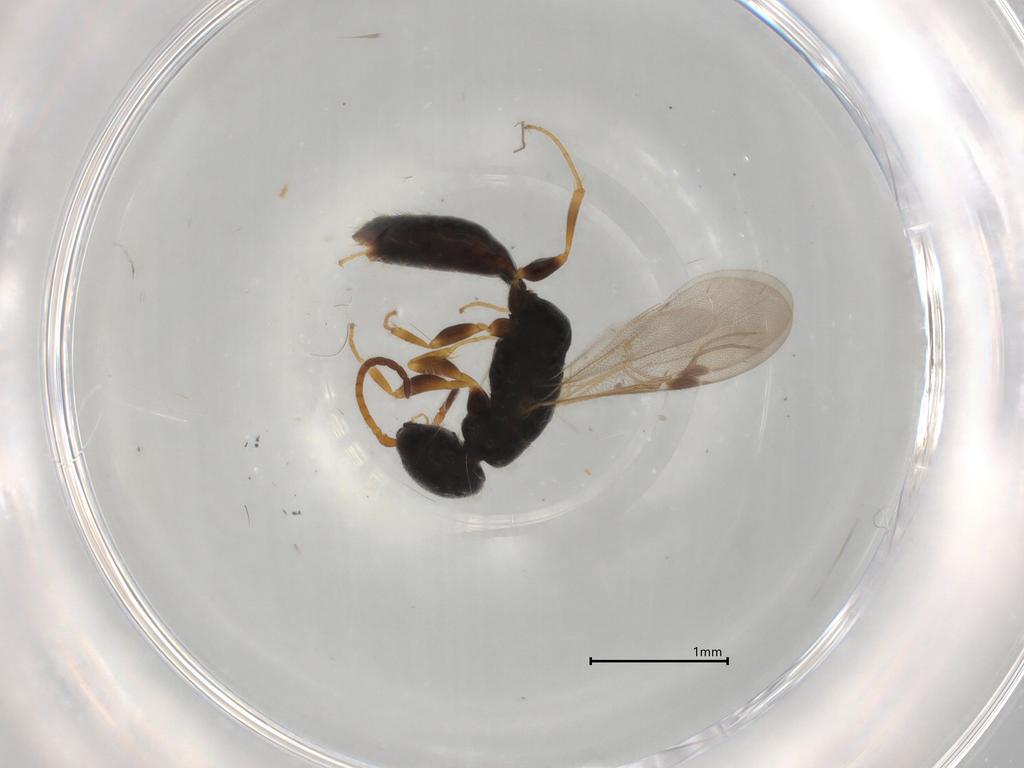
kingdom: Animalia
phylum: Arthropoda
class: Insecta
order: Hymenoptera
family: Bethylidae
